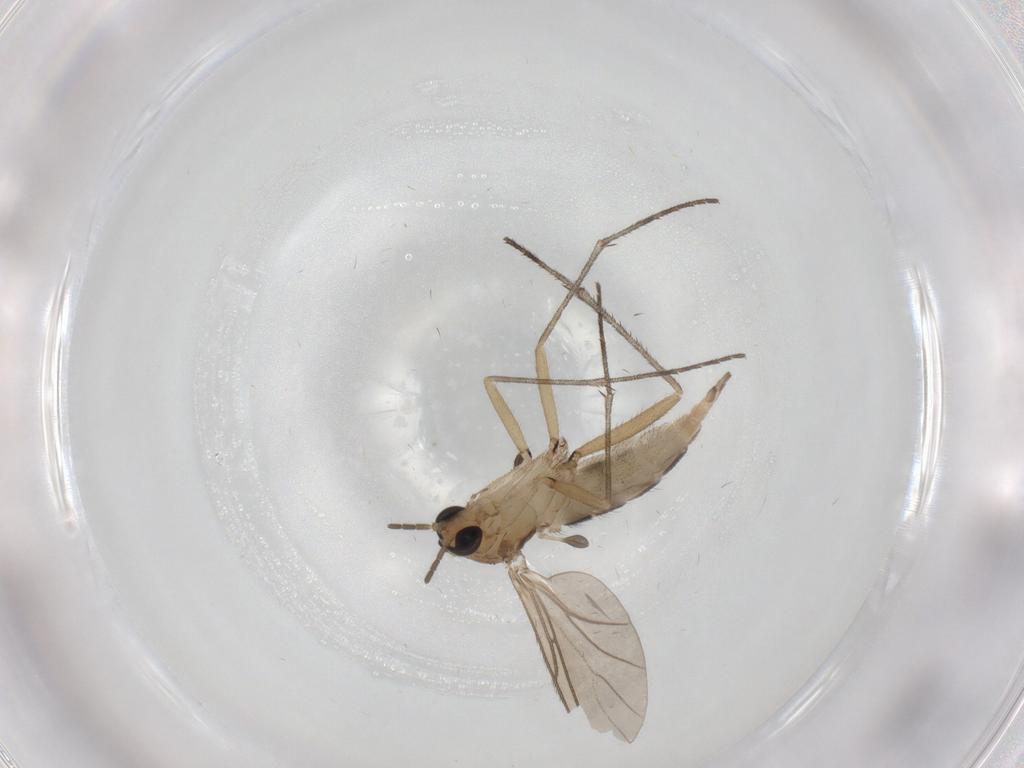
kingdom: Animalia
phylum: Arthropoda
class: Insecta
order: Diptera
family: Sciaridae
